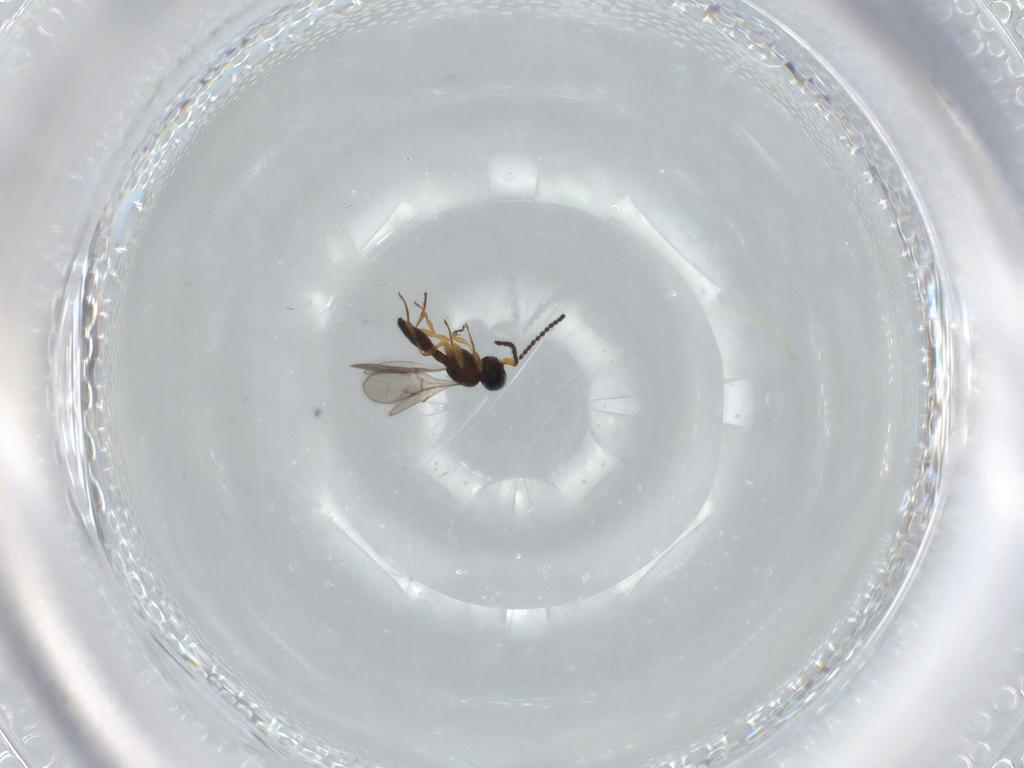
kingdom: Animalia
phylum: Arthropoda
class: Insecta
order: Hymenoptera
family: Scelionidae
